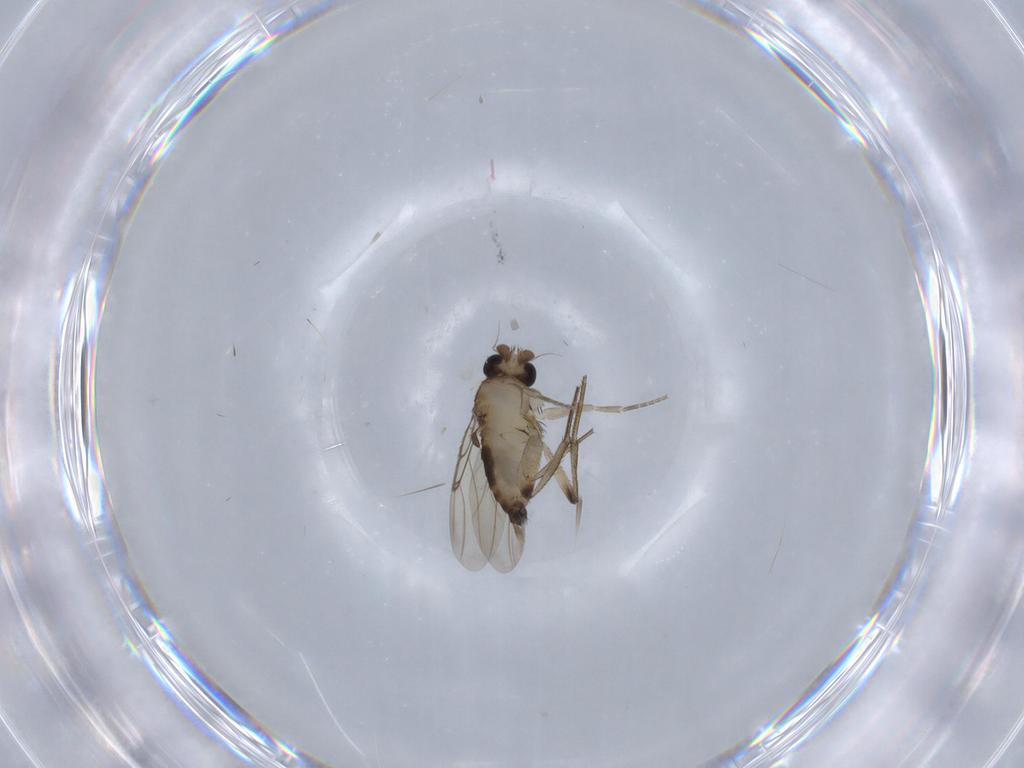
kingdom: Animalia
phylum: Arthropoda
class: Insecta
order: Diptera
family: Phoridae
